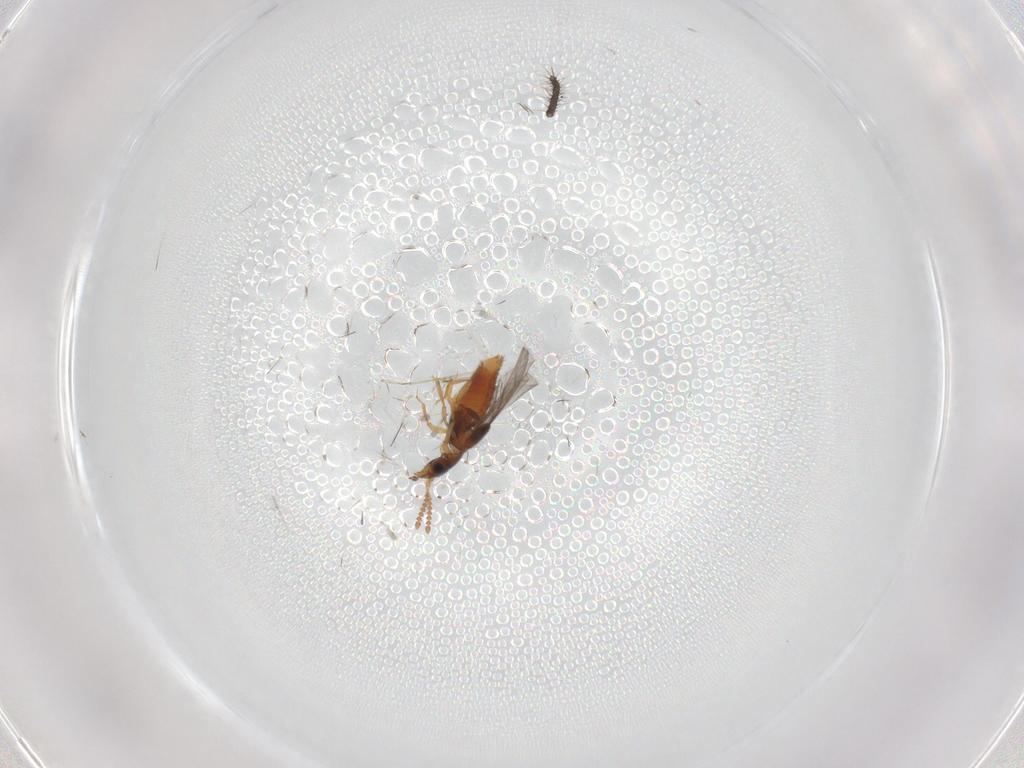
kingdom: Animalia
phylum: Arthropoda
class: Insecta
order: Coleoptera
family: Staphylinidae
